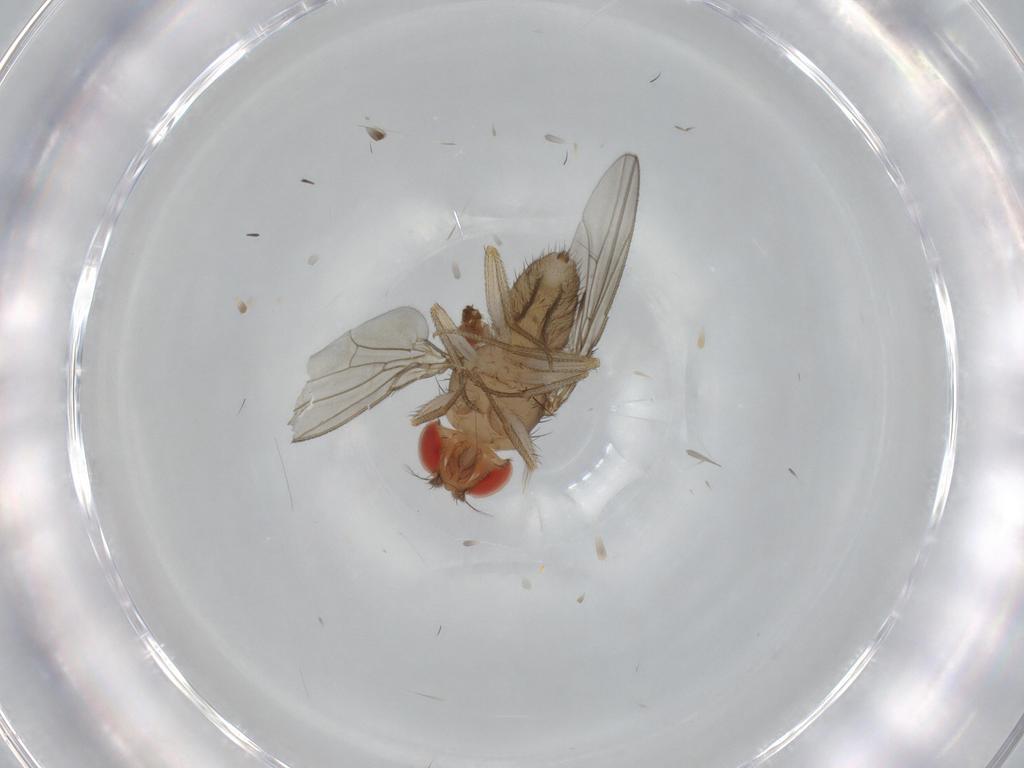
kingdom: Animalia
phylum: Arthropoda
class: Insecta
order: Diptera
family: Drosophilidae
